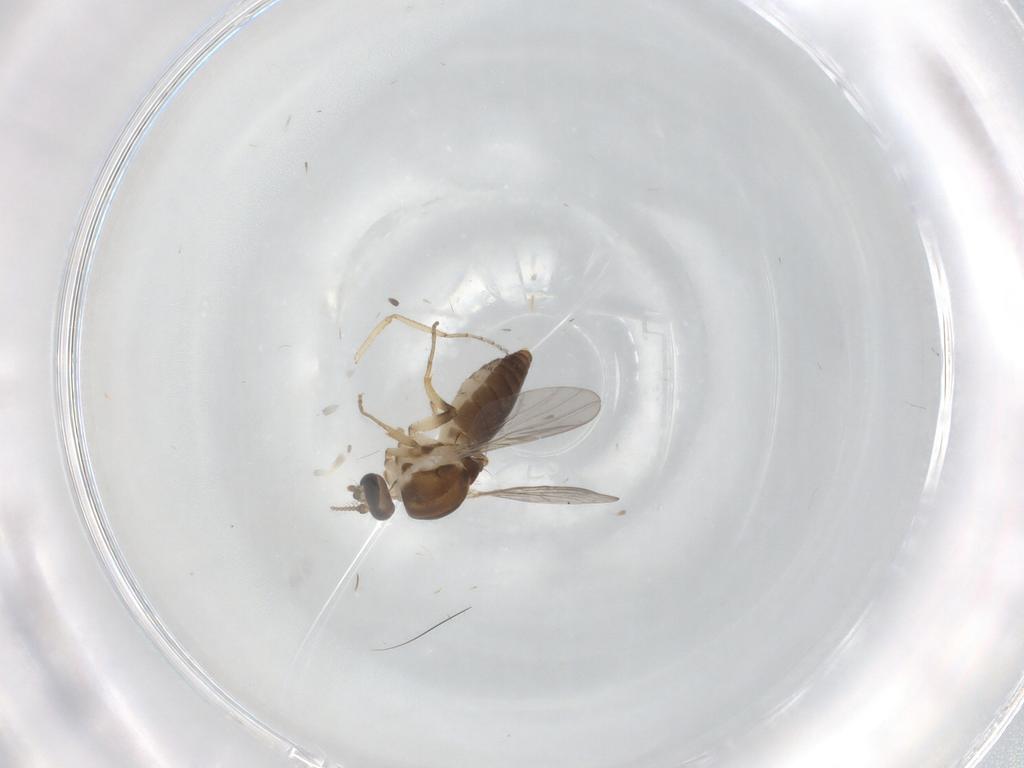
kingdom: Animalia
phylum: Arthropoda
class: Insecta
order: Diptera
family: Ceratopogonidae
